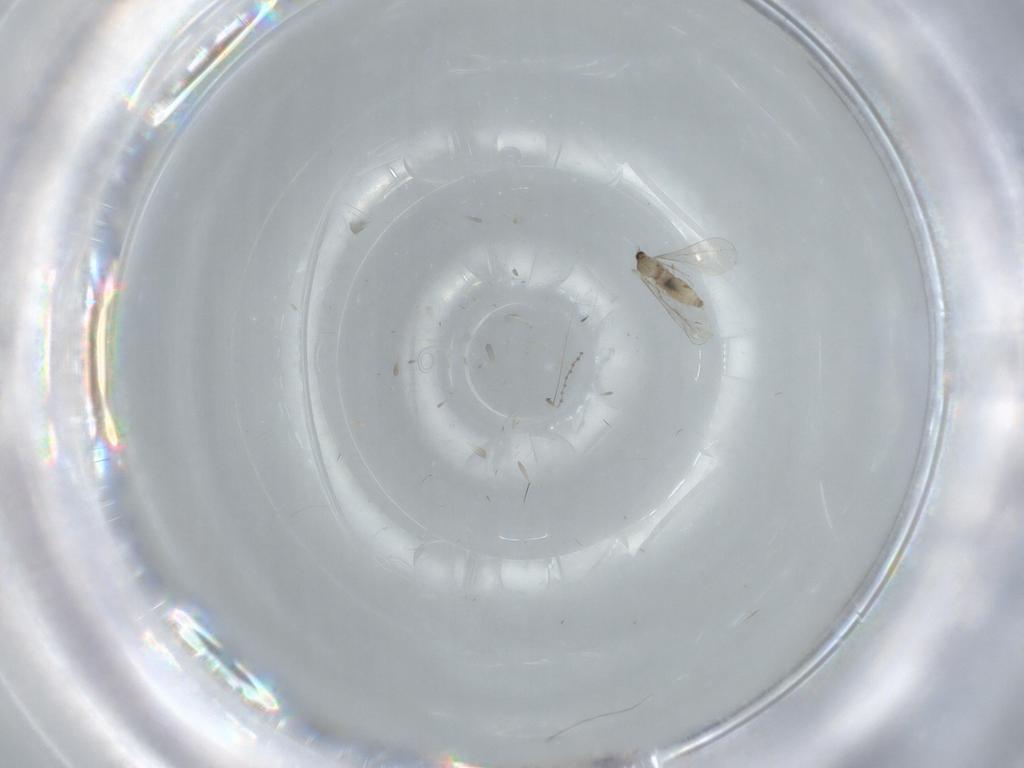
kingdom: Animalia
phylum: Arthropoda
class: Insecta
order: Diptera
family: Cecidomyiidae
